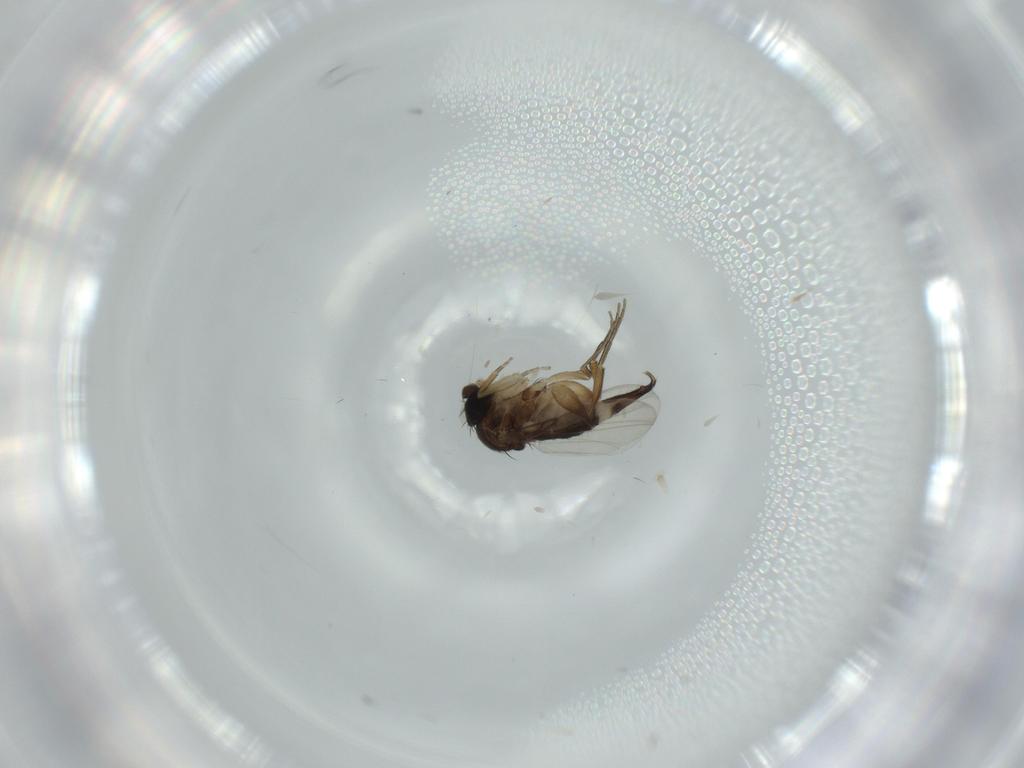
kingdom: Animalia
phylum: Arthropoda
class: Insecta
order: Diptera
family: Phoridae
